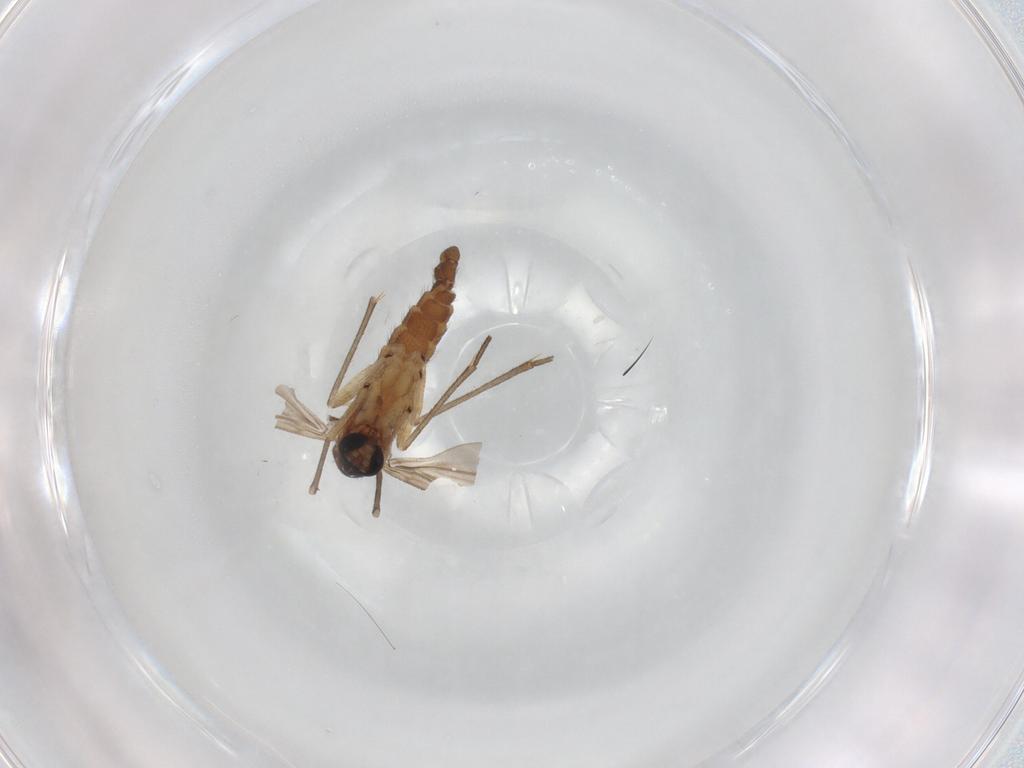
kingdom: Animalia
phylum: Arthropoda
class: Insecta
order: Diptera
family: Sciaridae
